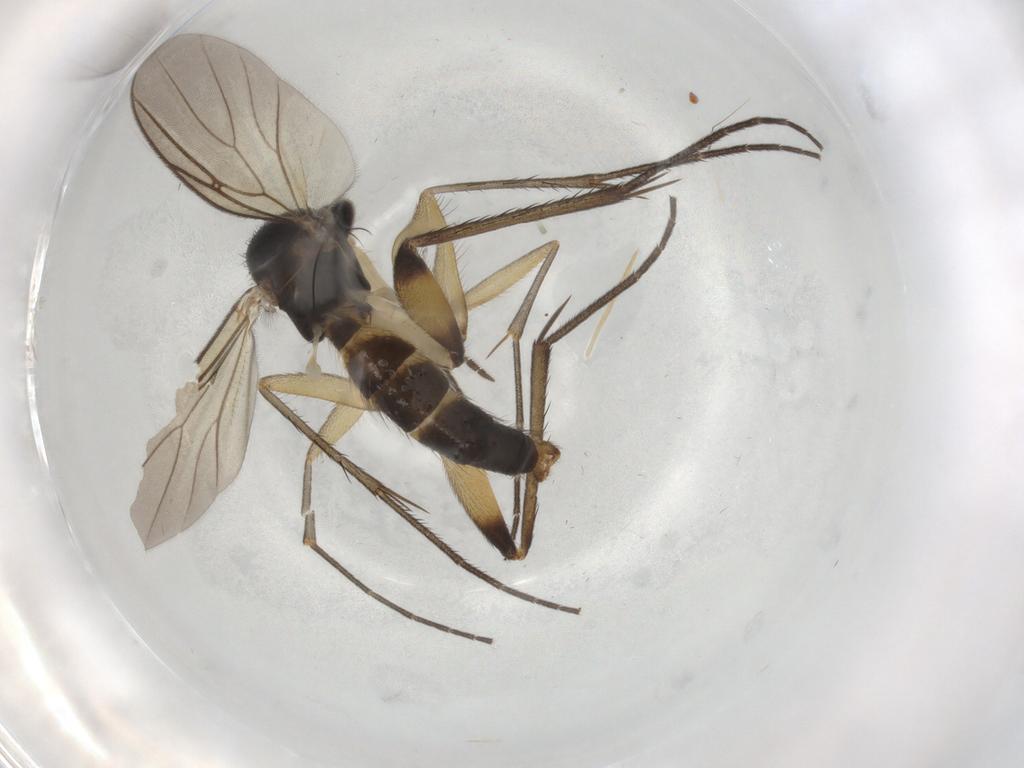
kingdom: Animalia
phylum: Arthropoda
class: Insecta
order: Diptera
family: Mycetophilidae
